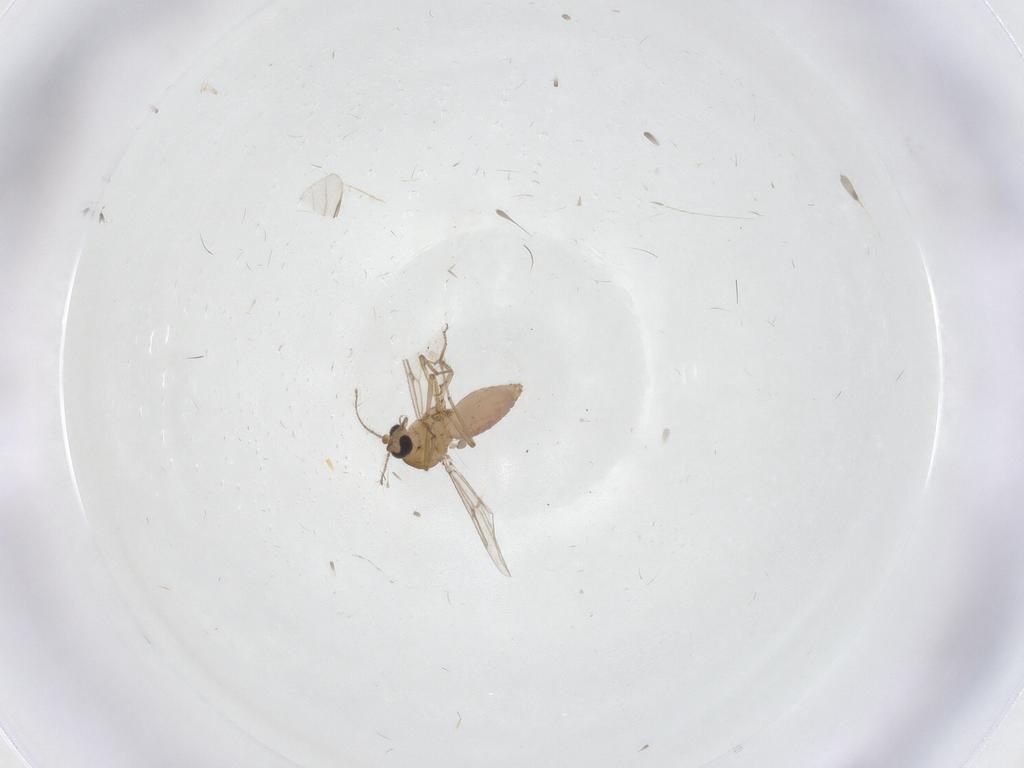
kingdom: Animalia
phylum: Arthropoda
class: Insecta
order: Diptera
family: Ceratopogonidae
